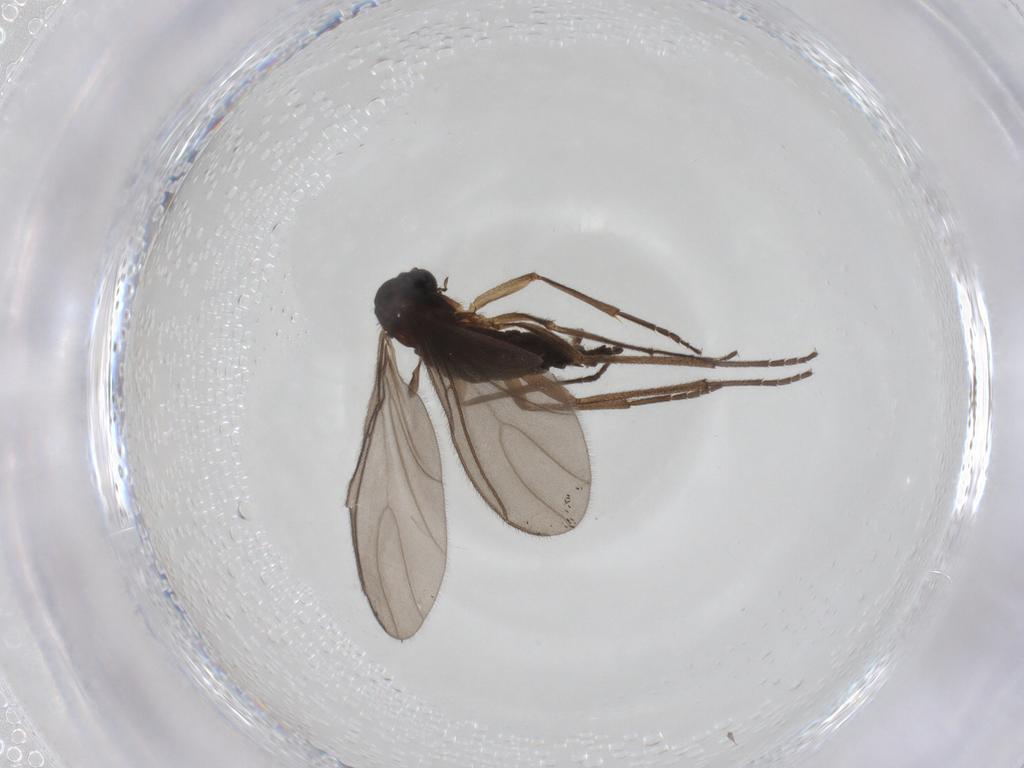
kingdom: Animalia
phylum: Arthropoda
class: Insecta
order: Diptera
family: Sciaridae
